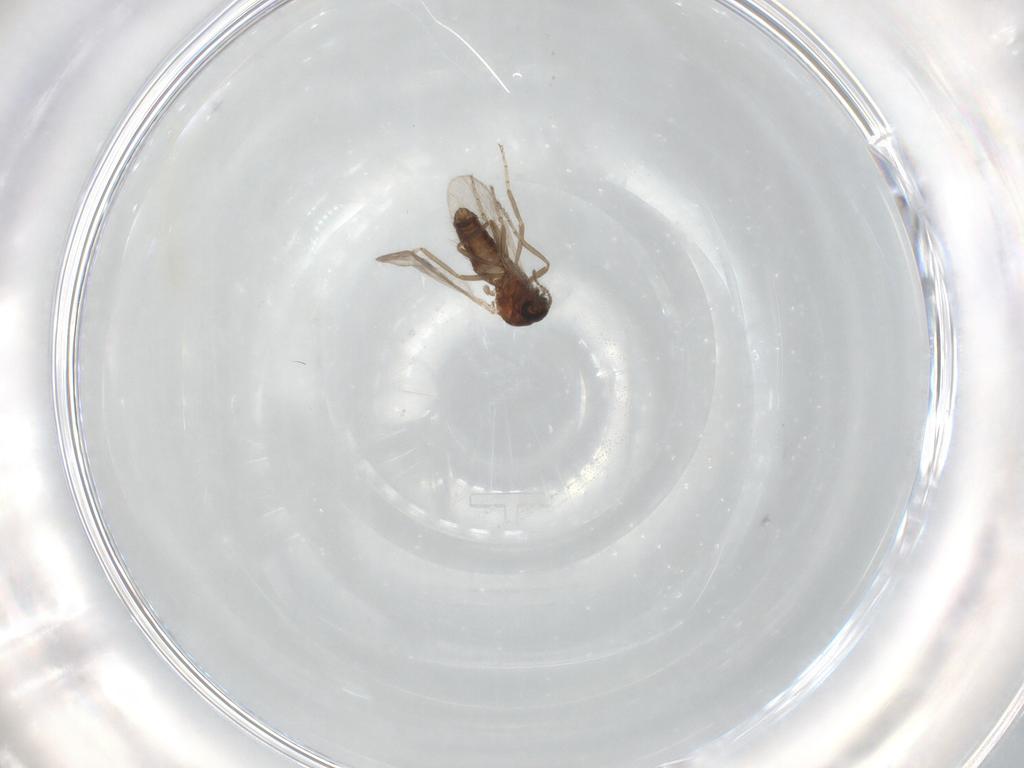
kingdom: Animalia
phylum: Arthropoda
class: Insecta
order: Diptera
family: Ceratopogonidae
